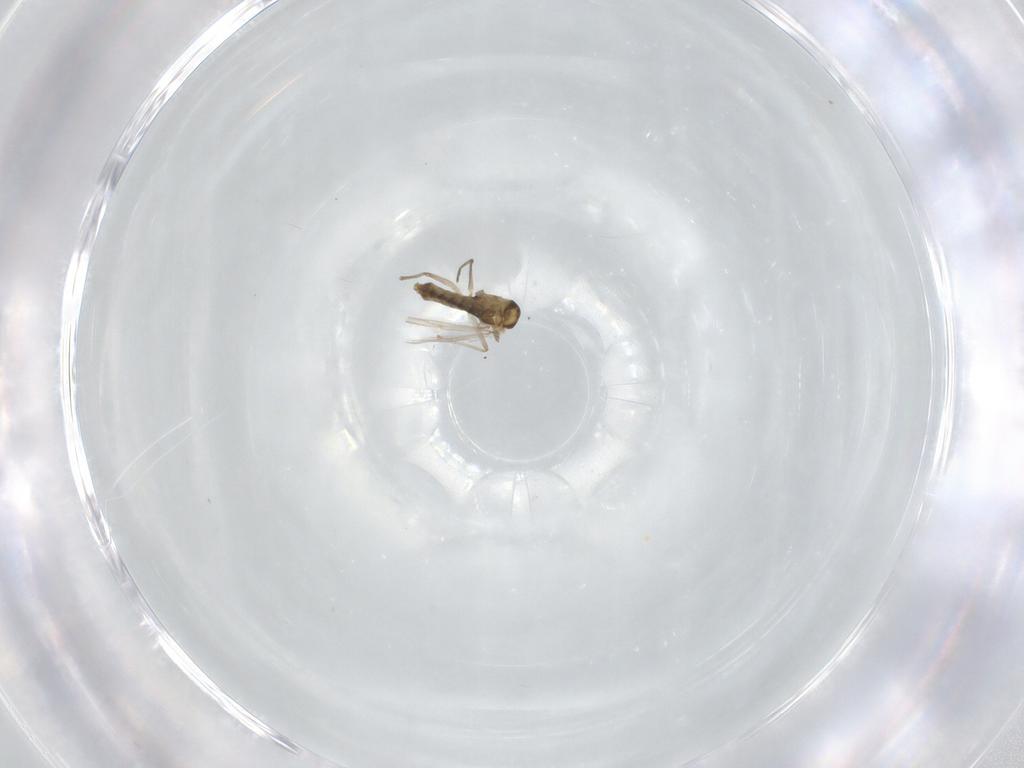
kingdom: Animalia
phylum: Arthropoda
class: Insecta
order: Diptera
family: Chironomidae
